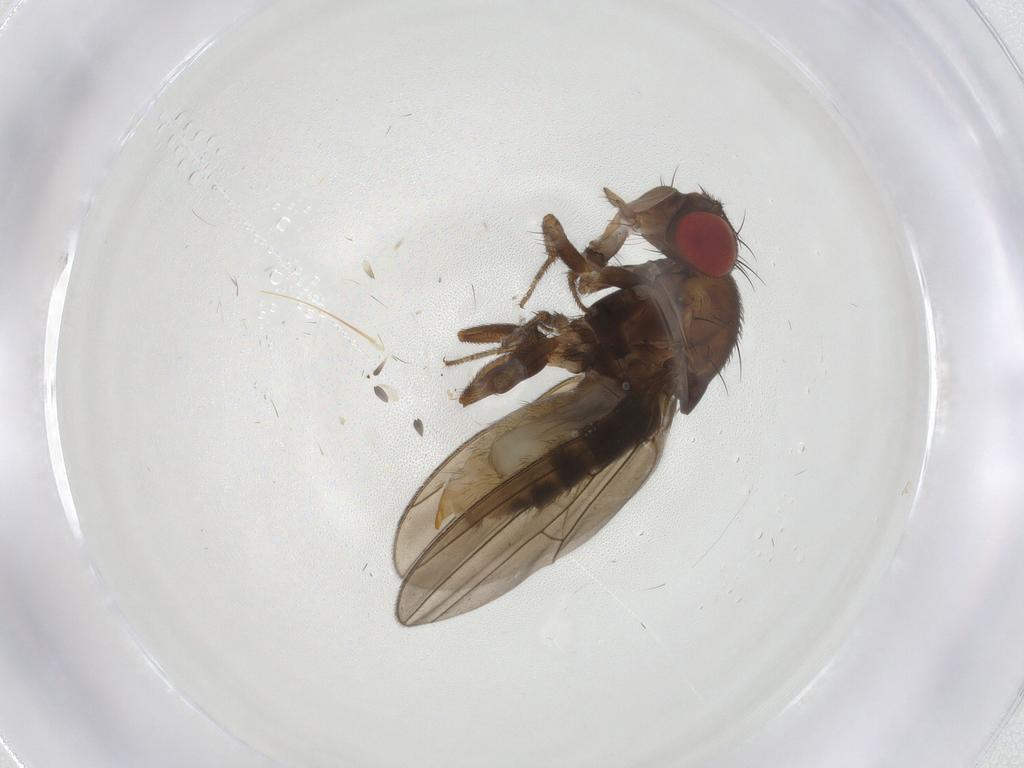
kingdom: Animalia
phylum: Arthropoda
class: Insecta
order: Diptera
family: Drosophilidae
